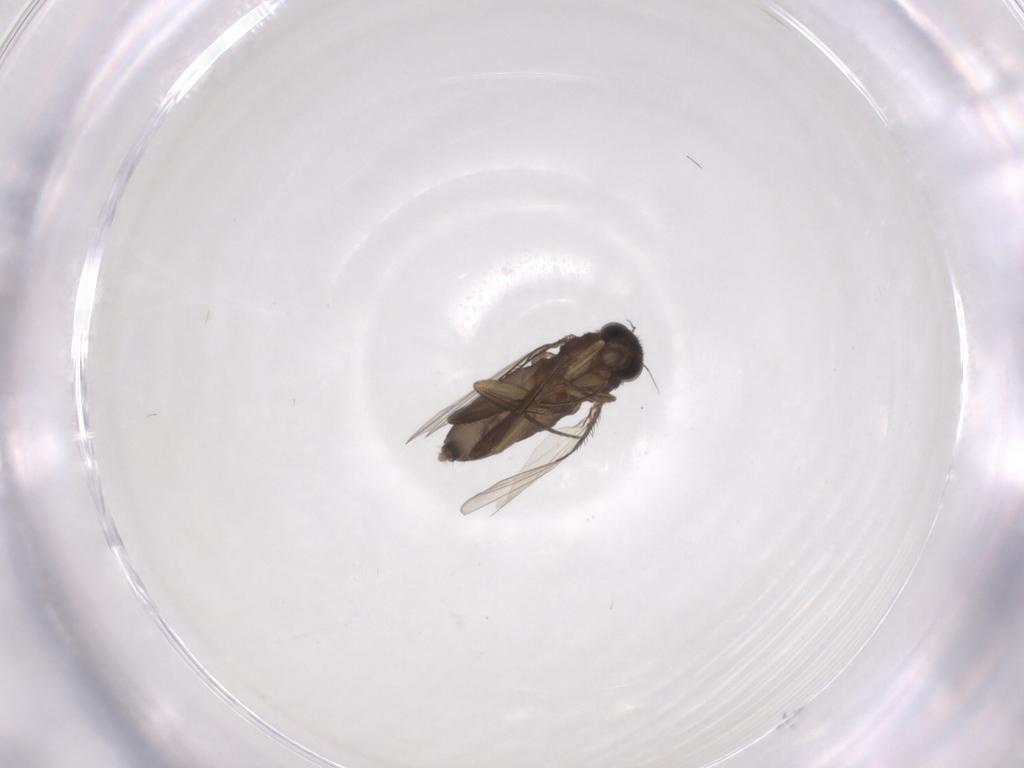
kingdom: Animalia
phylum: Arthropoda
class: Insecta
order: Diptera
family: Phoridae
